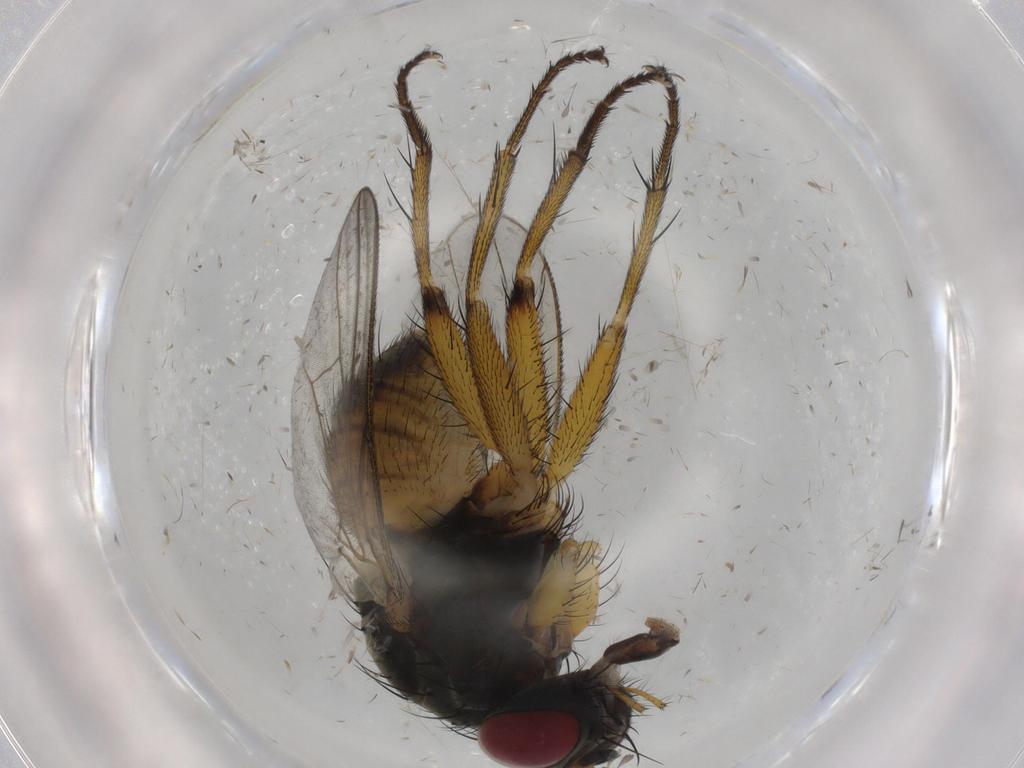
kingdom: Animalia
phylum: Arthropoda
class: Insecta
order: Diptera
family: Muscidae
